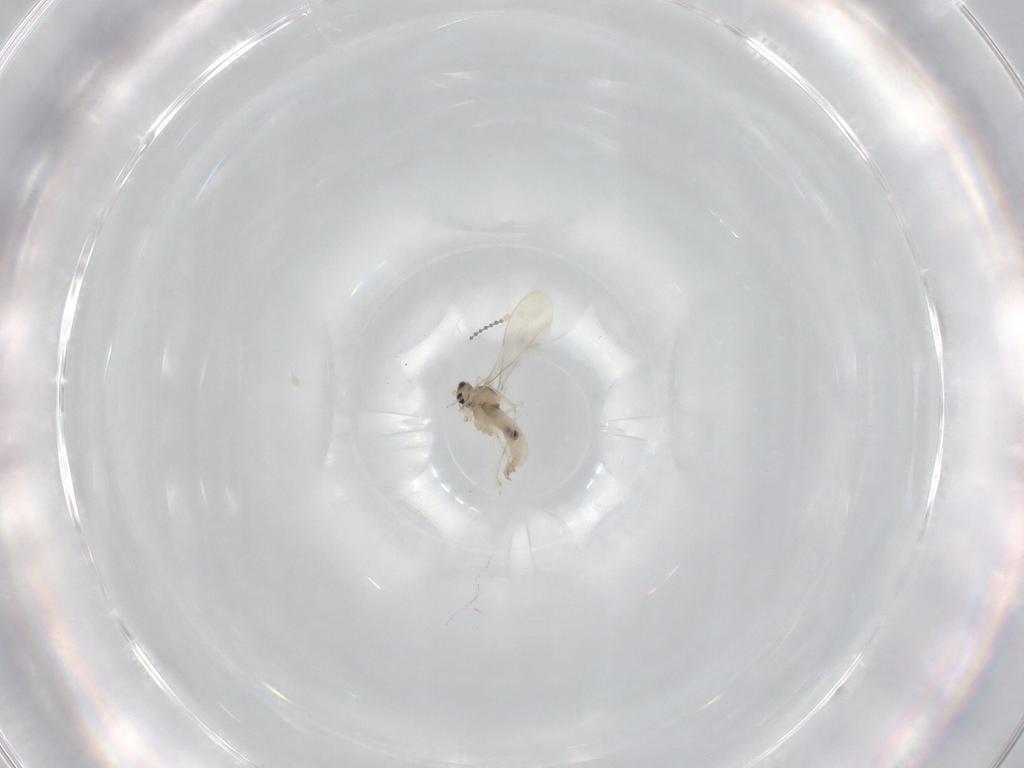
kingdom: Animalia
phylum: Arthropoda
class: Insecta
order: Diptera
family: Cecidomyiidae
